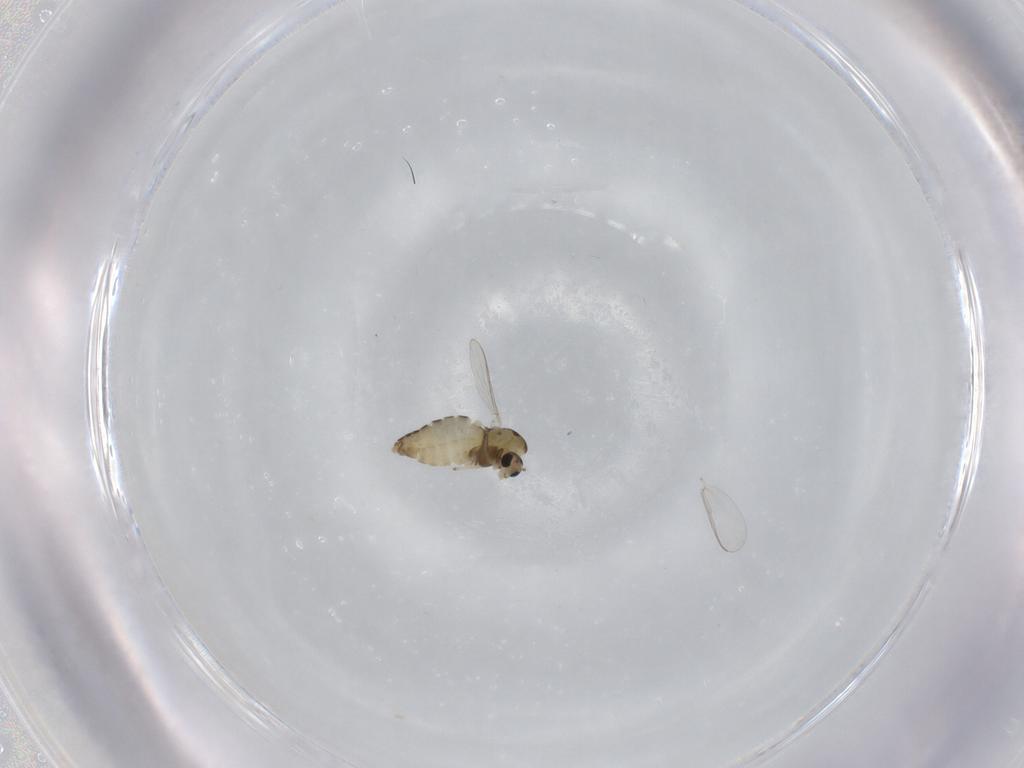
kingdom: Animalia
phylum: Arthropoda
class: Insecta
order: Diptera
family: Chironomidae
